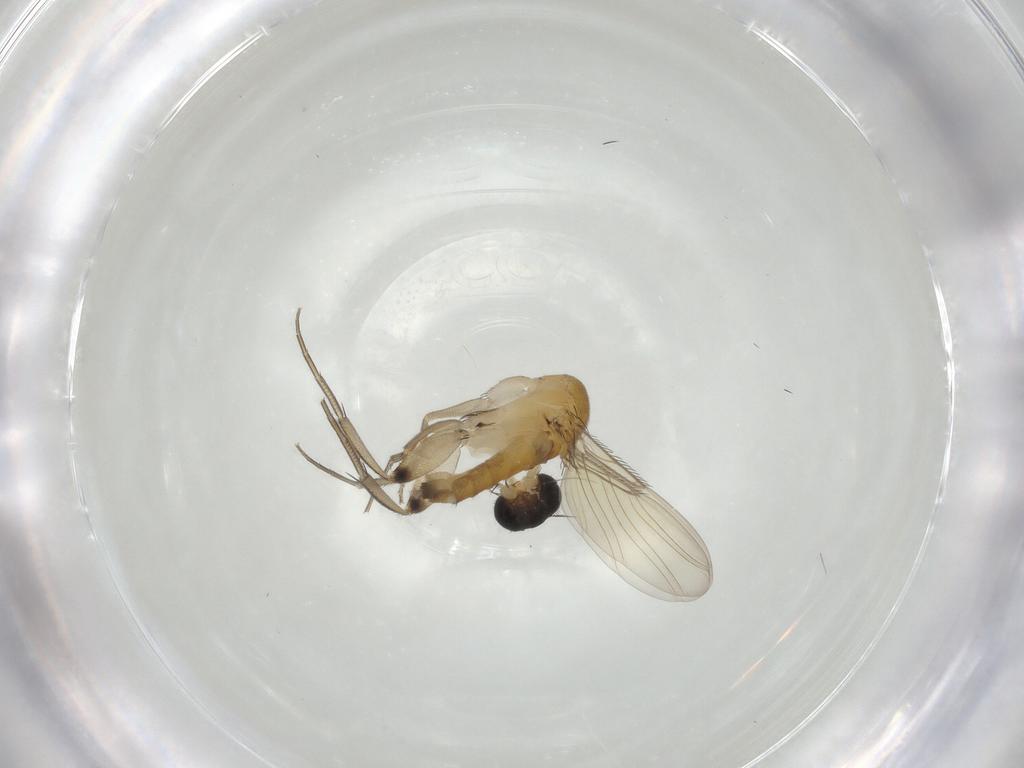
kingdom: Animalia
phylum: Arthropoda
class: Insecta
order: Diptera
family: Phoridae
